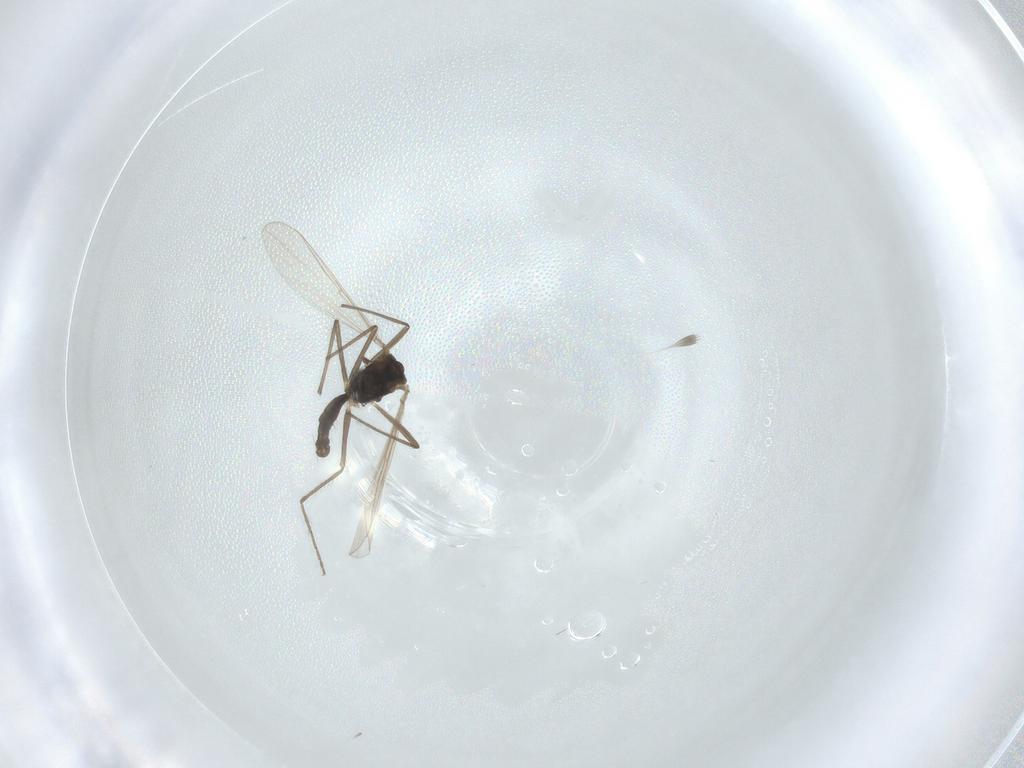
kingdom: Animalia
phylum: Arthropoda
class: Insecta
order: Diptera
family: Chironomidae
